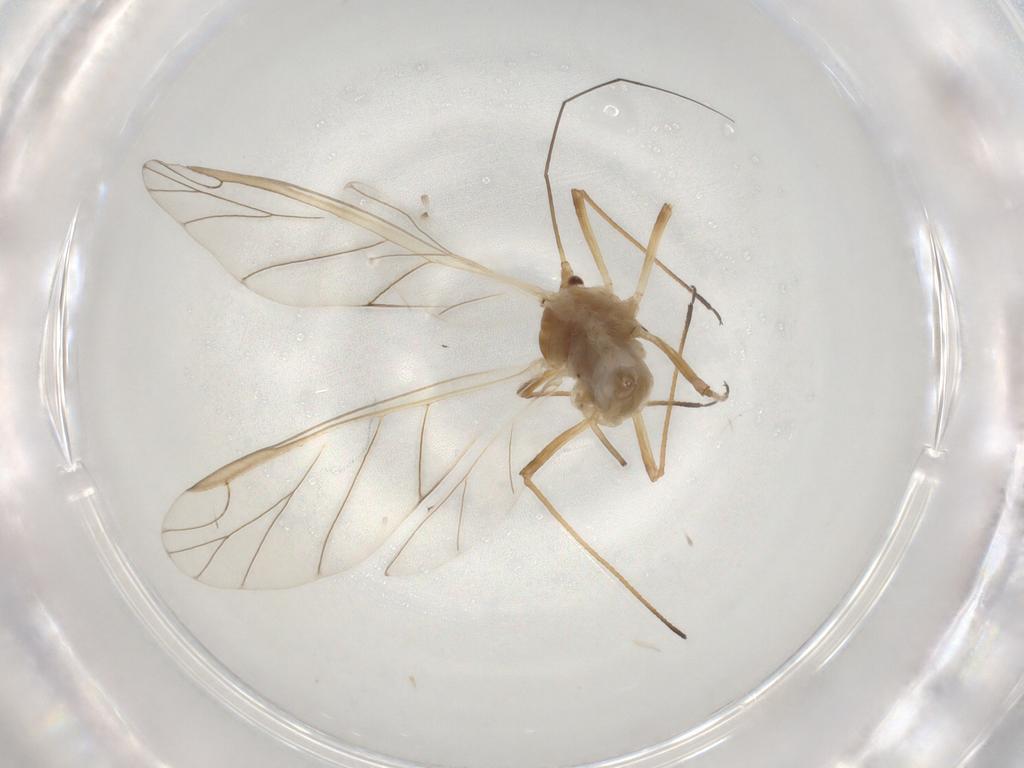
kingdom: Animalia
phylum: Arthropoda
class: Insecta
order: Hemiptera
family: Aphididae
